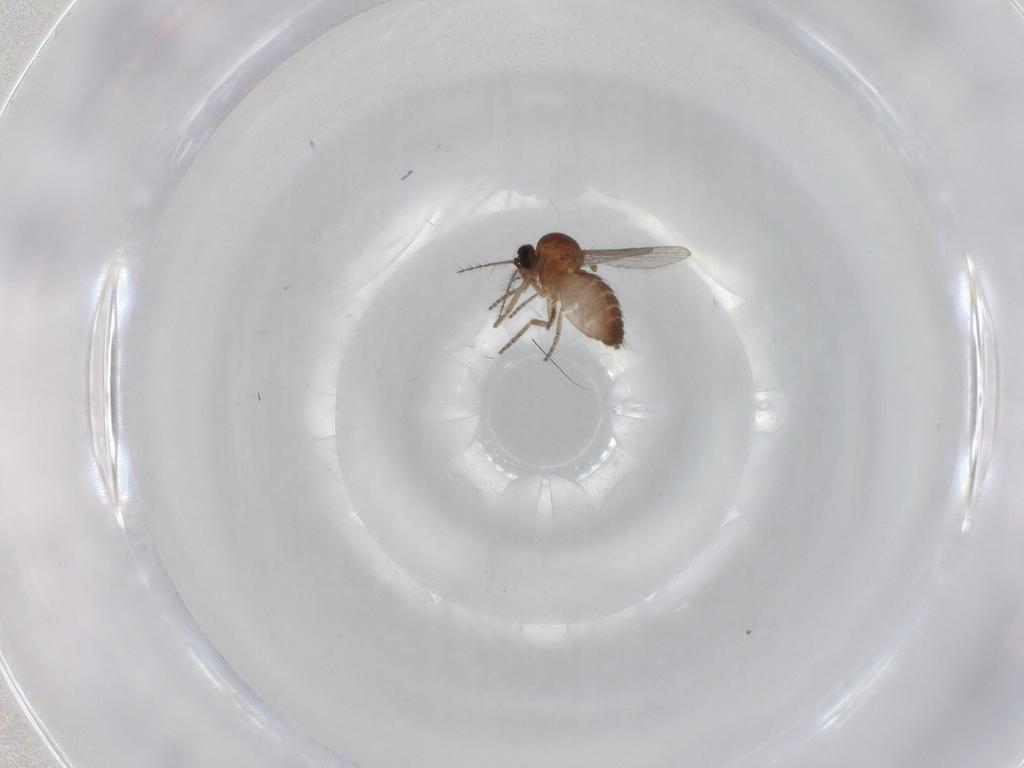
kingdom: Animalia
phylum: Arthropoda
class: Insecta
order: Diptera
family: Ceratopogonidae
